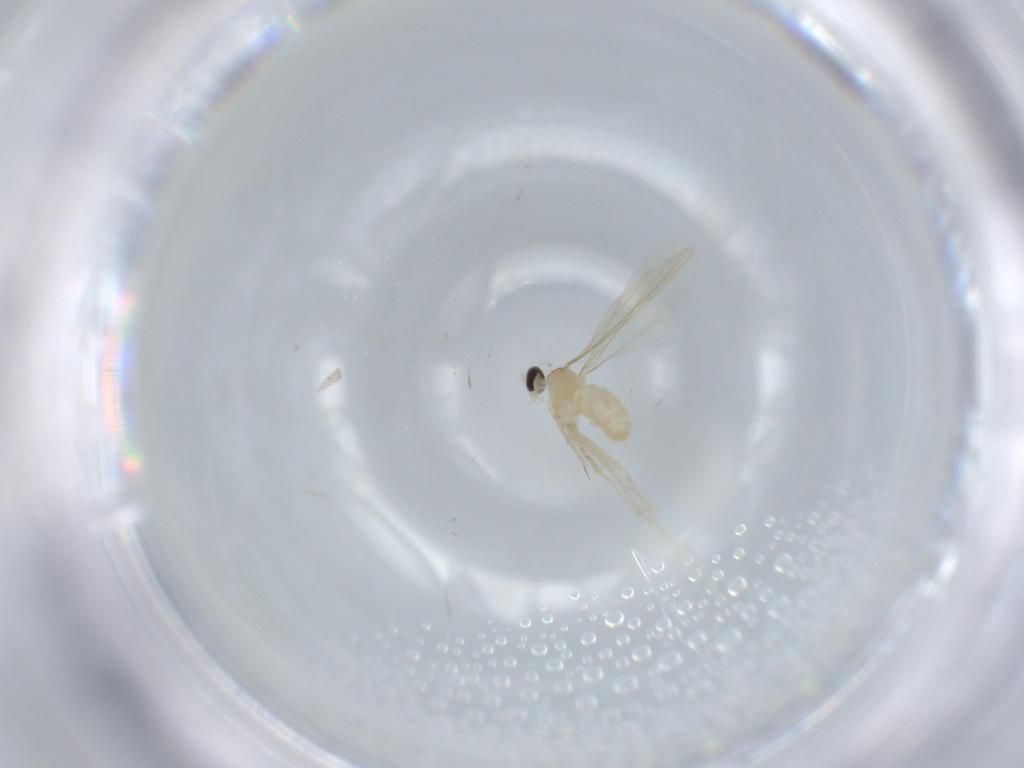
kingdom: Animalia
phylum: Arthropoda
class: Insecta
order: Diptera
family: Cecidomyiidae
